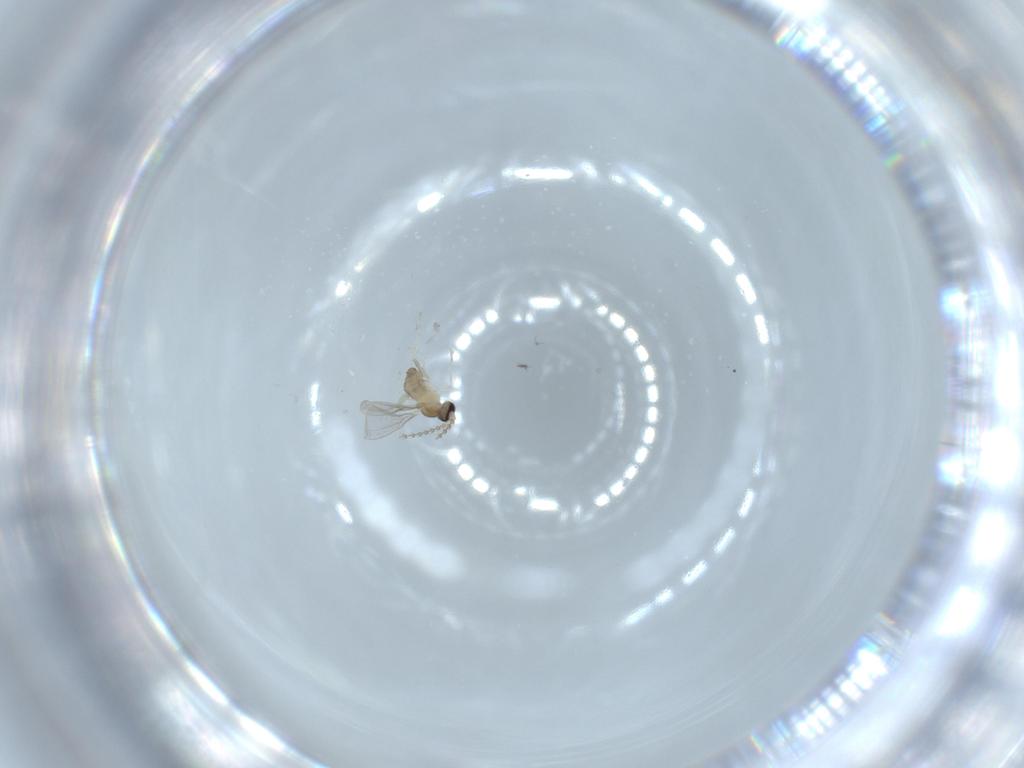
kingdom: Animalia
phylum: Arthropoda
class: Insecta
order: Diptera
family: Cecidomyiidae
